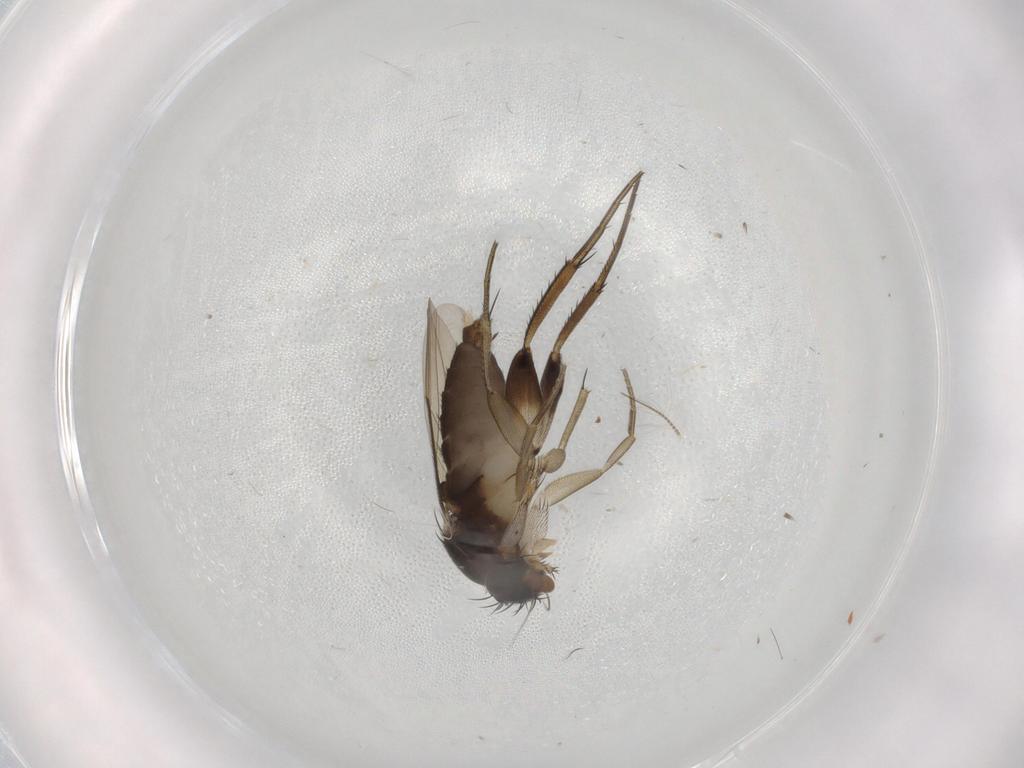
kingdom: Animalia
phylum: Arthropoda
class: Insecta
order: Diptera
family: Phoridae
